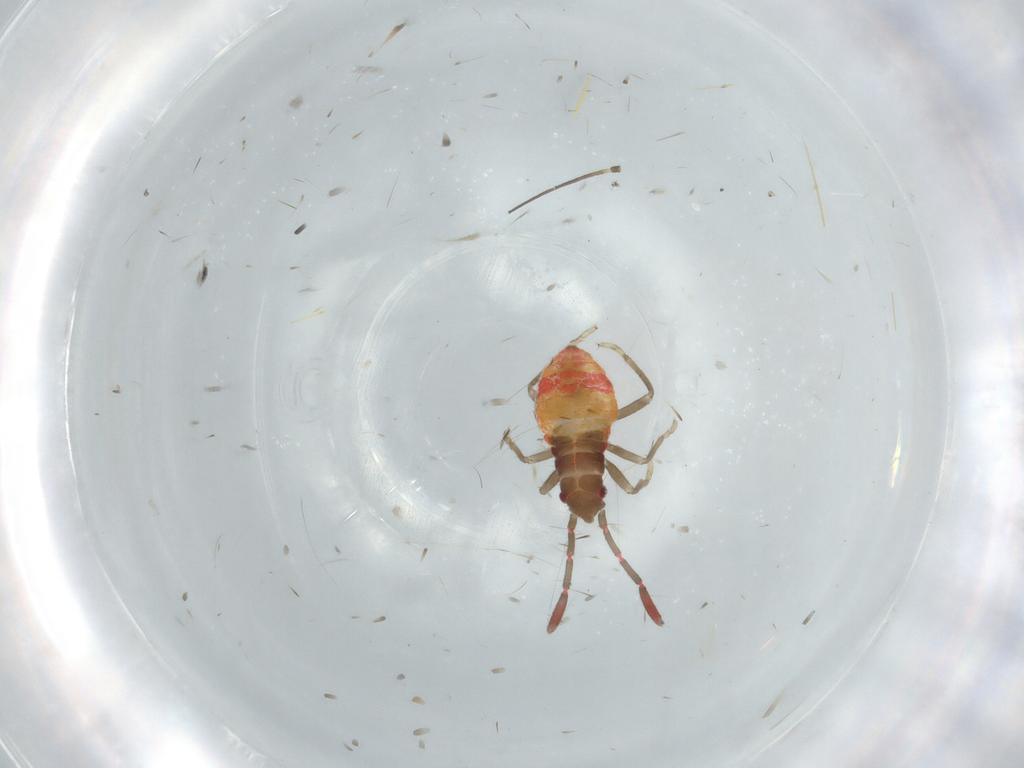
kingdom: Animalia
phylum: Arthropoda
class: Insecta
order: Hemiptera
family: Rhyparochromidae
